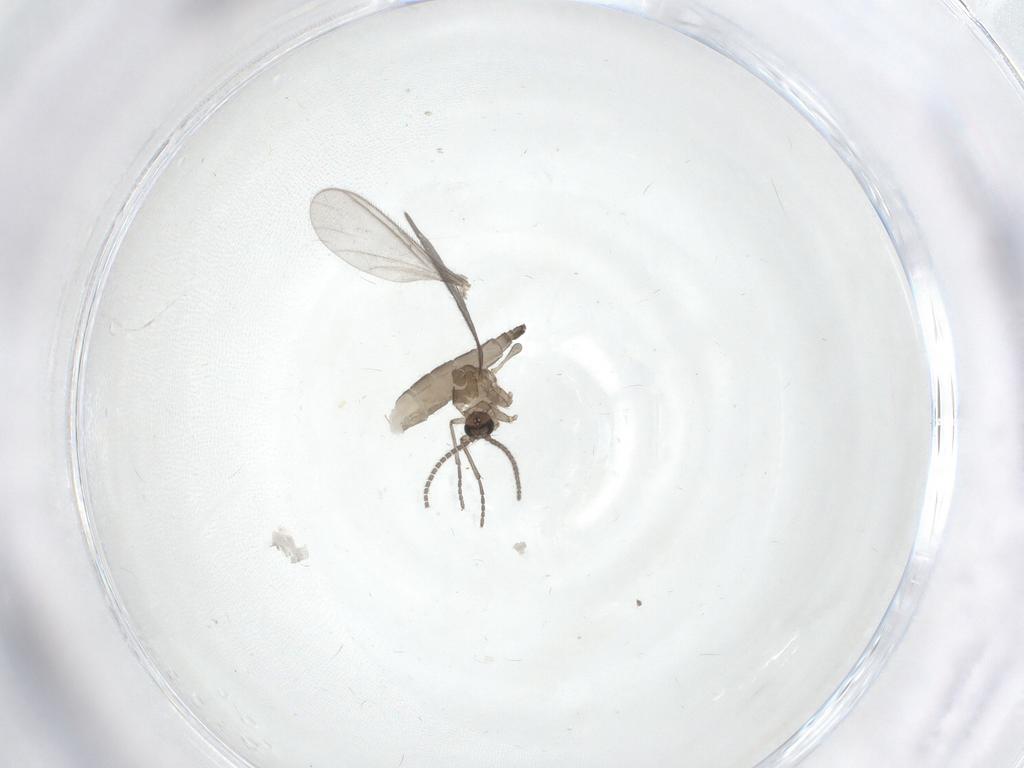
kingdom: Animalia
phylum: Arthropoda
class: Insecta
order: Diptera
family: Sciaridae
